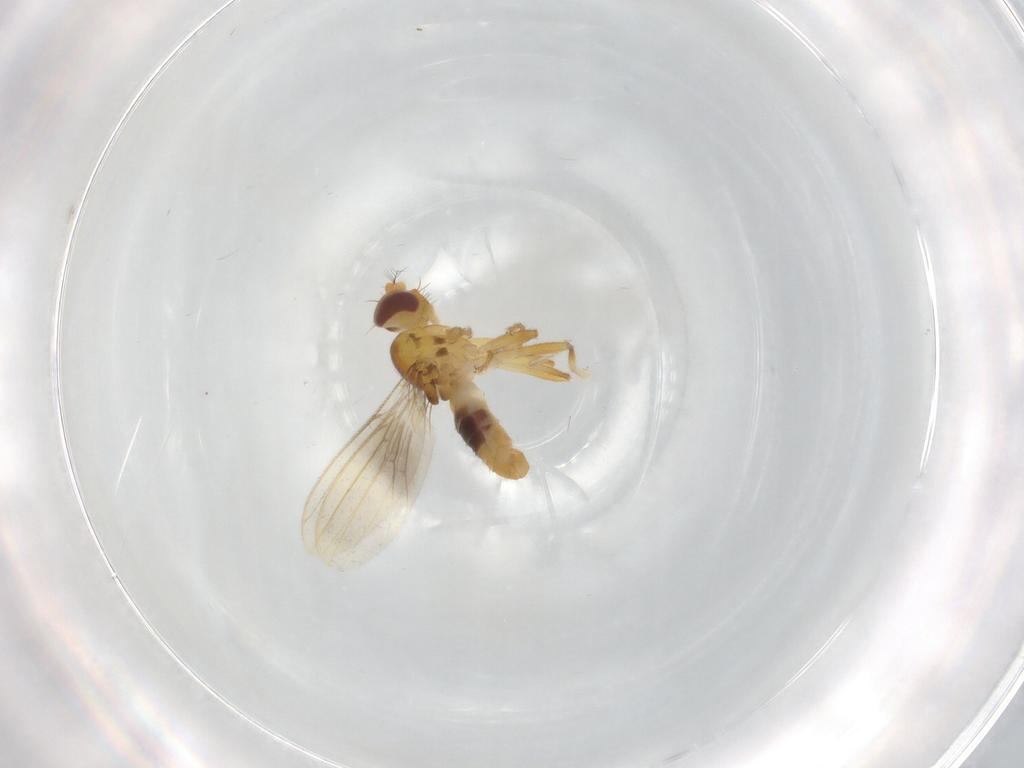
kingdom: Animalia
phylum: Arthropoda
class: Insecta
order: Diptera
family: Periscelididae
